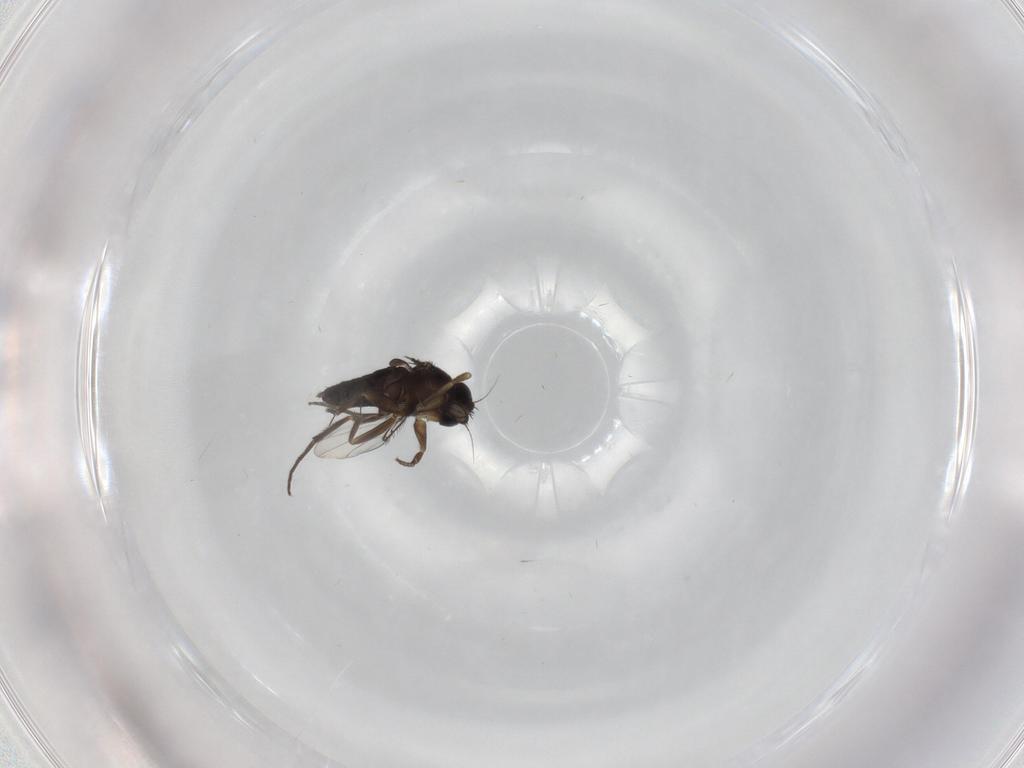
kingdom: Animalia
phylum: Arthropoda
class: Insecta
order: Diptera
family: Phoridae
